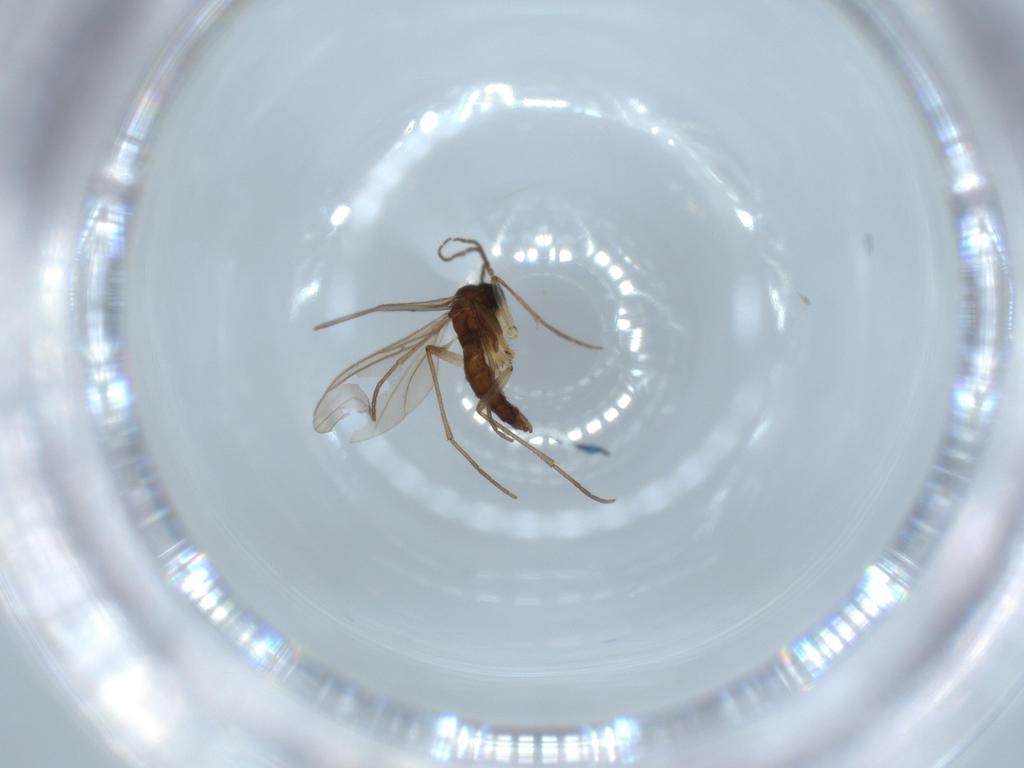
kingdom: Animalia
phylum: Arthropoda
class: Insecta
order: Diptera
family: Sciaridae
